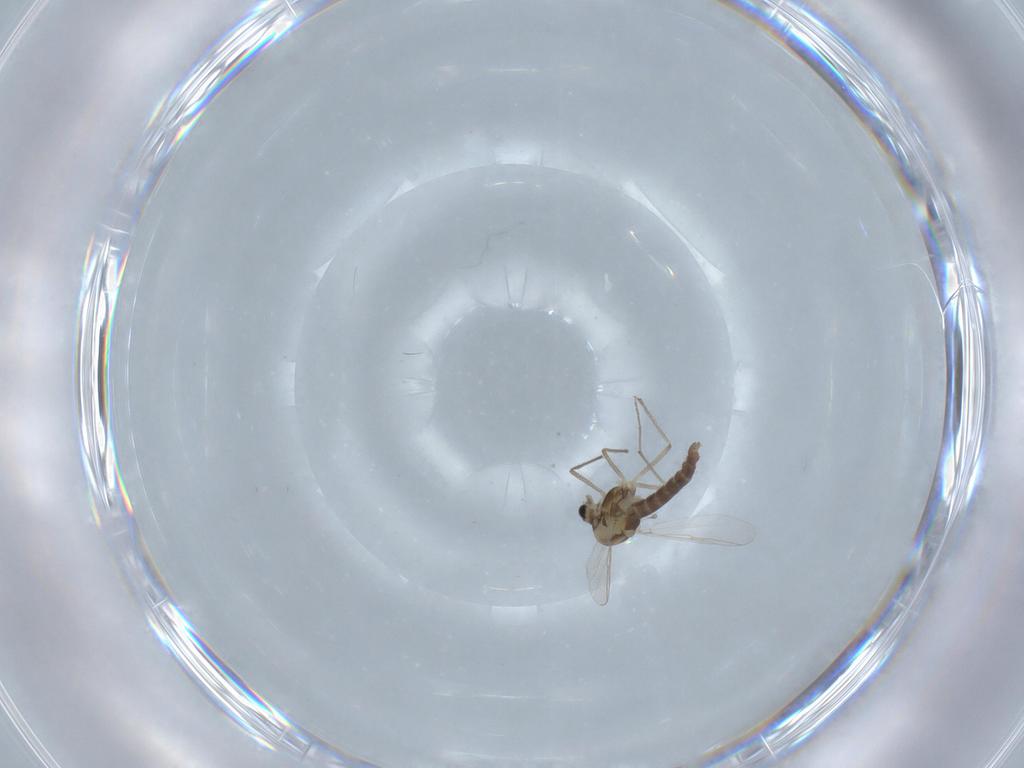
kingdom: Animalia
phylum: Arthropoda
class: Insecta
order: Diptera
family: Chironomidae
